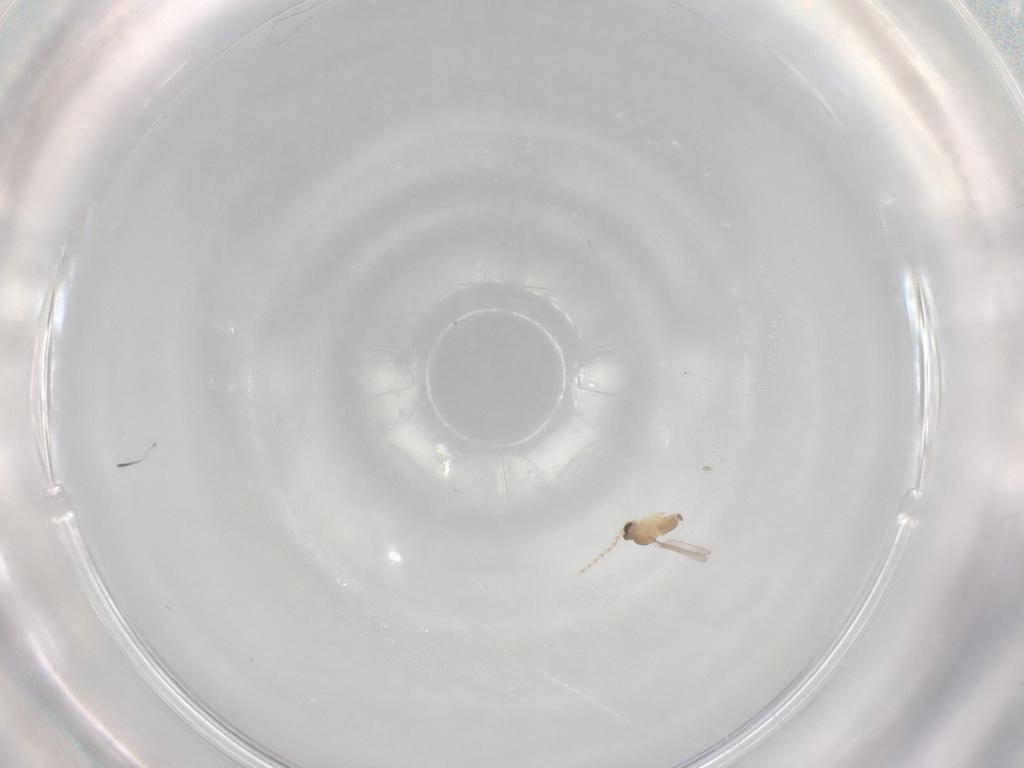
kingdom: Animalia
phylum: Arthropoda
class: Insecta
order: Diptera
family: Cecidomyiidae
